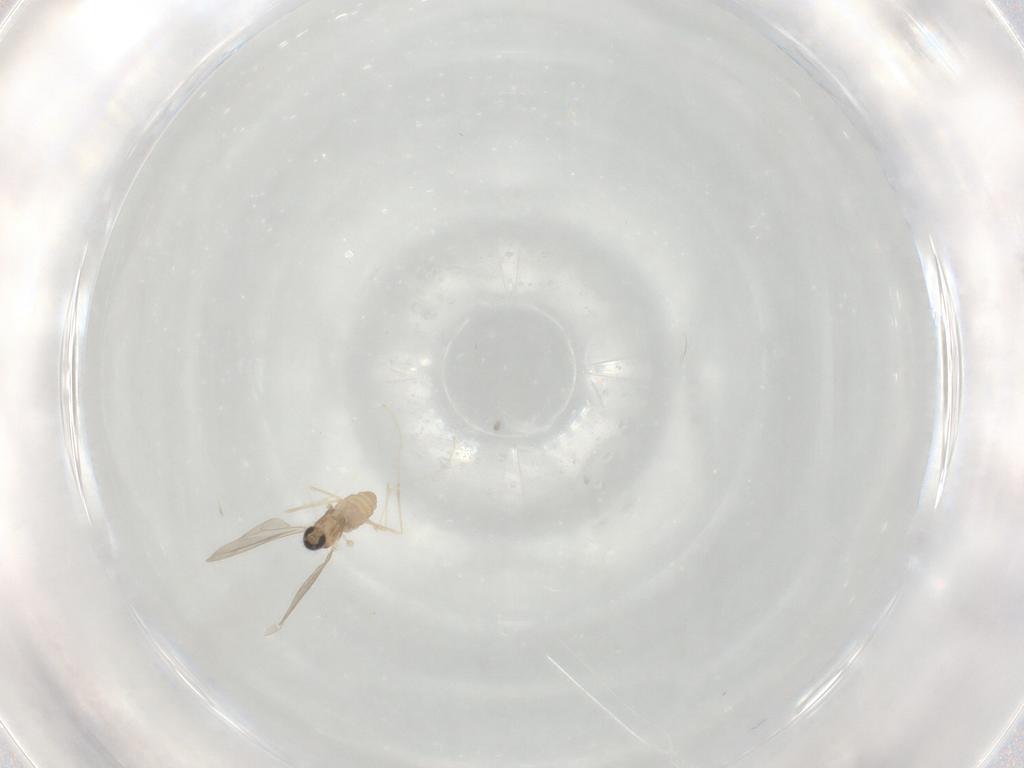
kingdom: Animalia
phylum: Arthropoda
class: Insecta
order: Diptera
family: Cecidomyiidae
